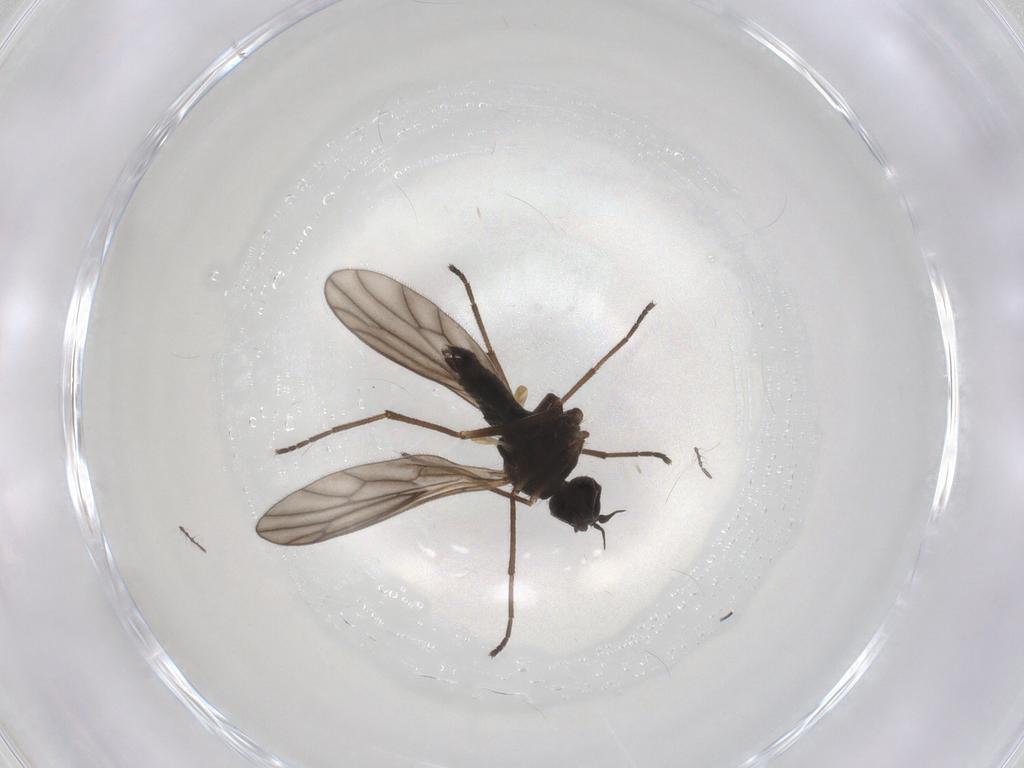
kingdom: Animalia
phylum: Arthropoda
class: Insecta
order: Diptera
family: Empididae
